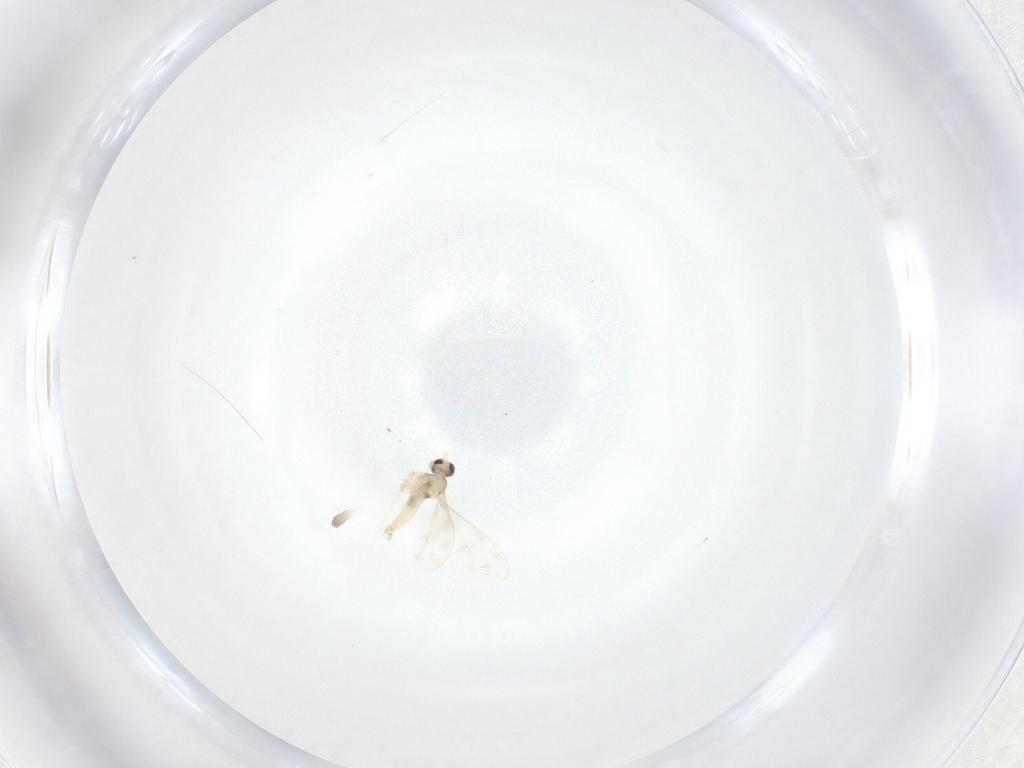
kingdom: Animalia
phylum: Arthropoda
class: Insecta
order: Diptera
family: Cecidomyiidae
